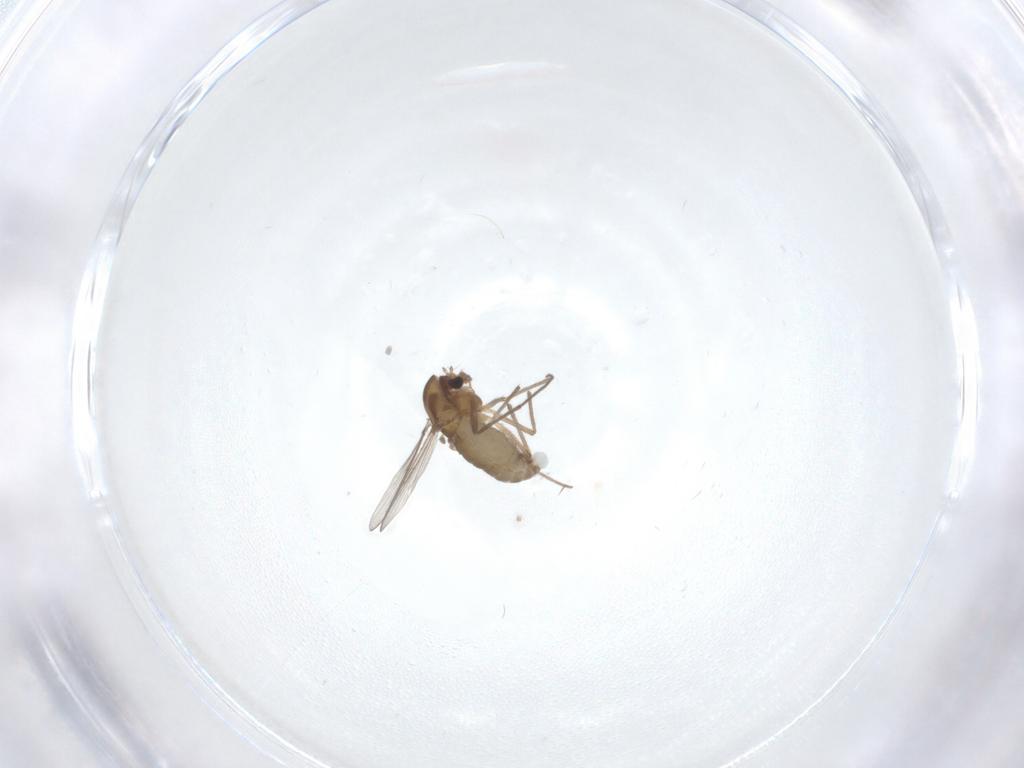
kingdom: Animalia
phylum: Arthropoda
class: Insecta
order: Diptera
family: Chironomidae
